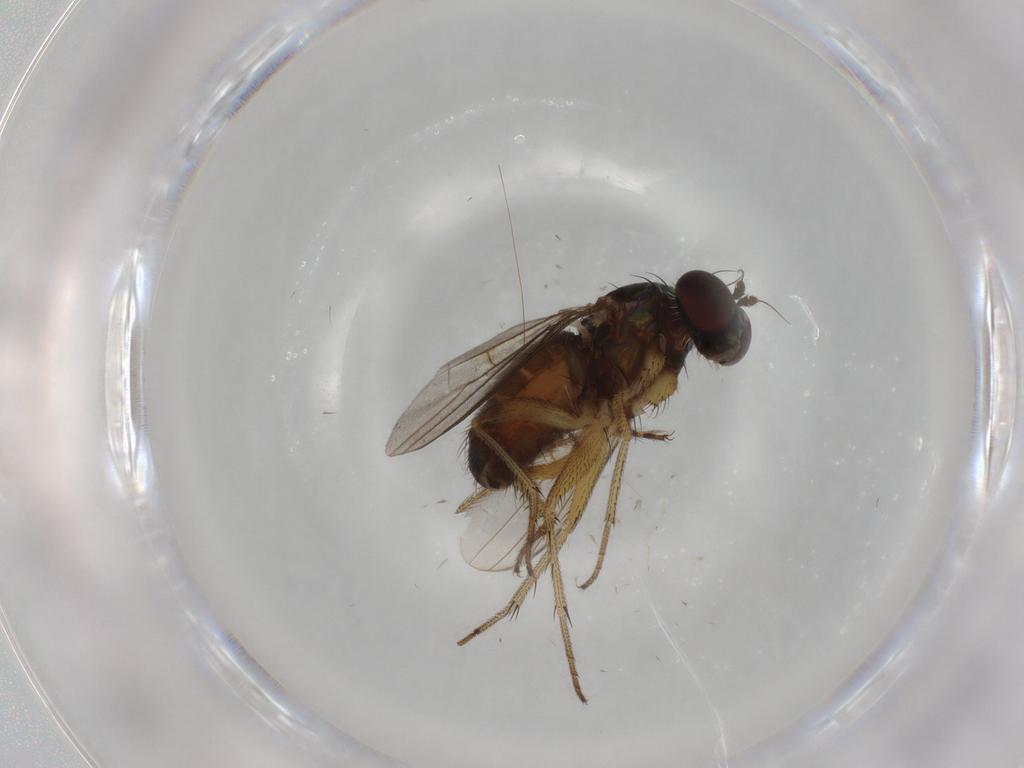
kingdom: Animalia
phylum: Arthropoda
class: Insecta
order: Diptera
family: Dolichopodidae
